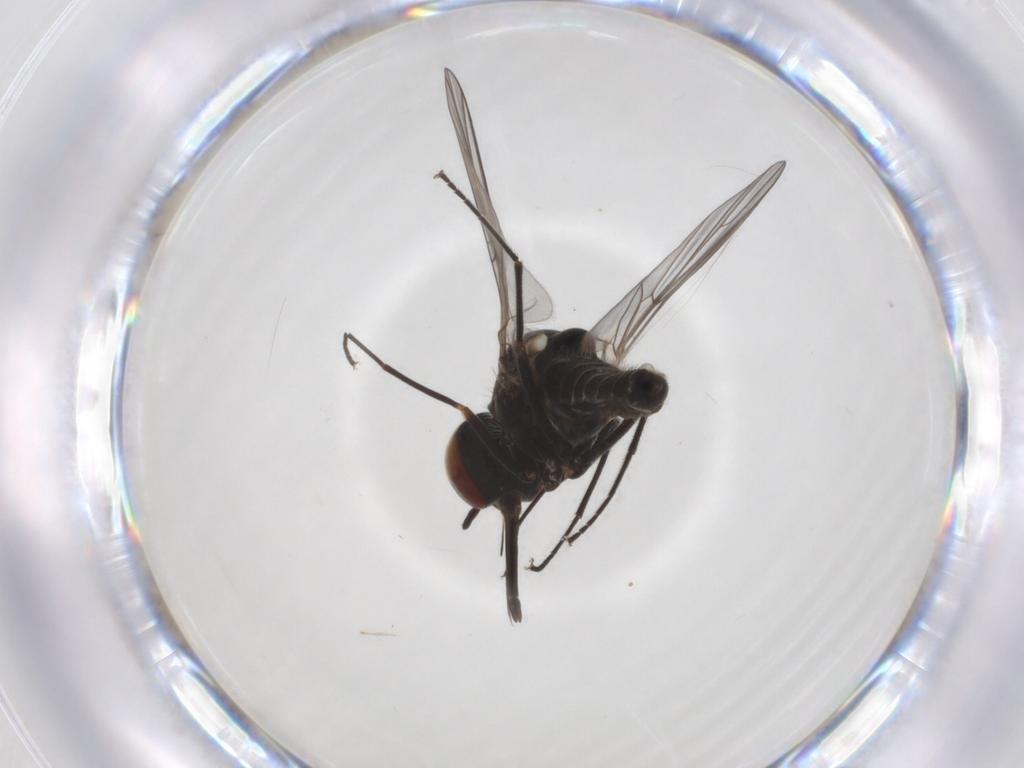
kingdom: Animalia
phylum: Arthropoda
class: Insecta
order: Diptera
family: Bombyliidae
